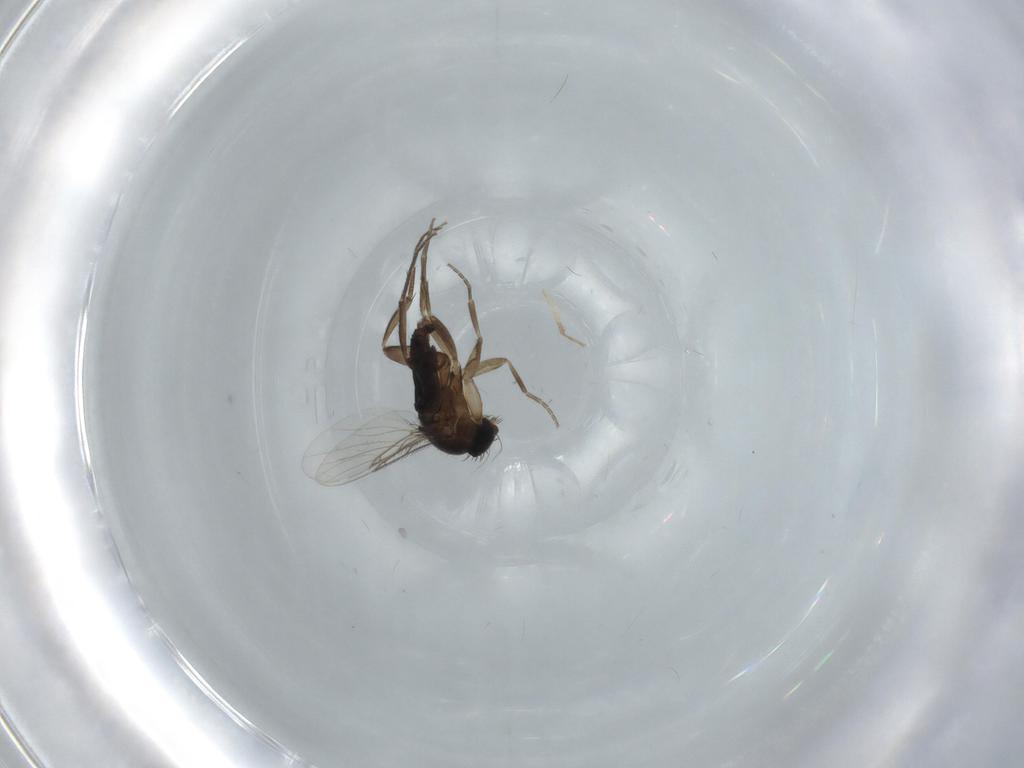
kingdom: Animalia
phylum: Arthropoda
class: Insecta
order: Diptera
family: Phoridae
